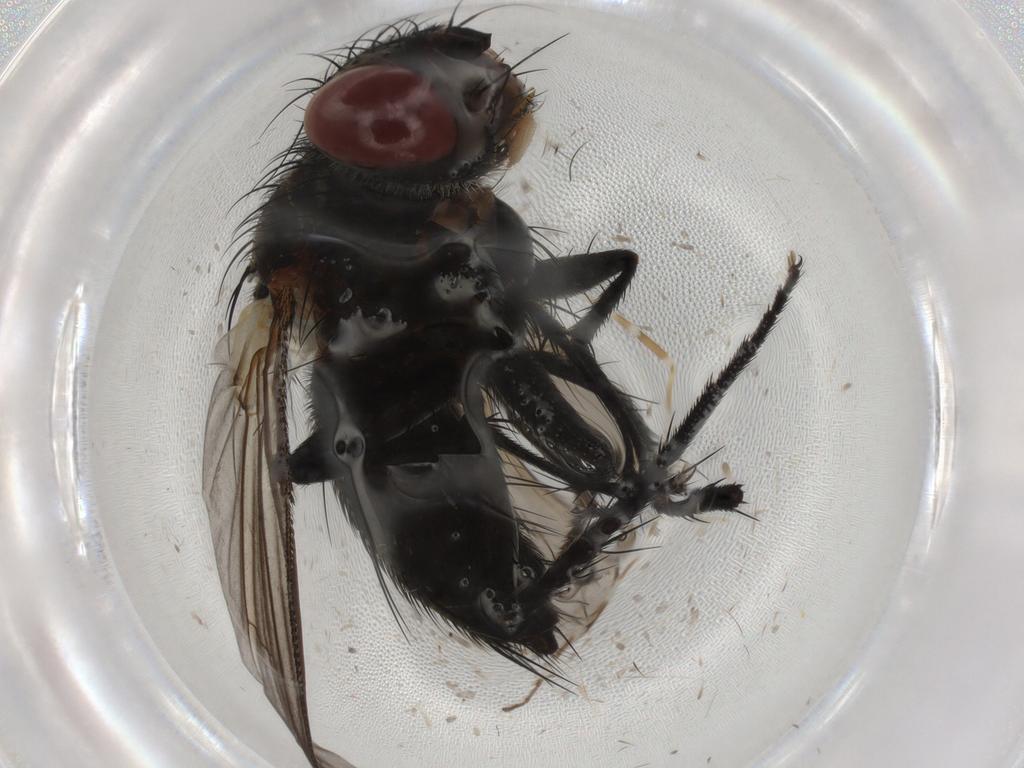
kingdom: Animalia
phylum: Arthropoda
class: Insecta
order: Diptera
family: Tachinidae
